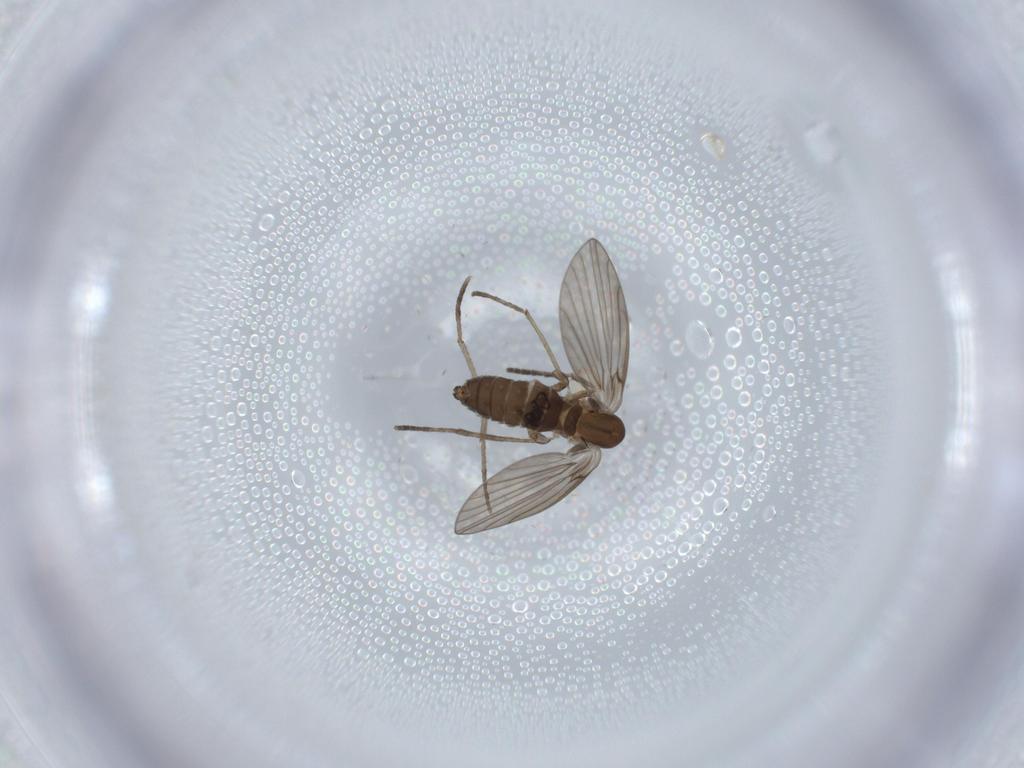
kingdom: Animalia
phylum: Arthropoda
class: Insecta
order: Diptera
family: Psychodidae
